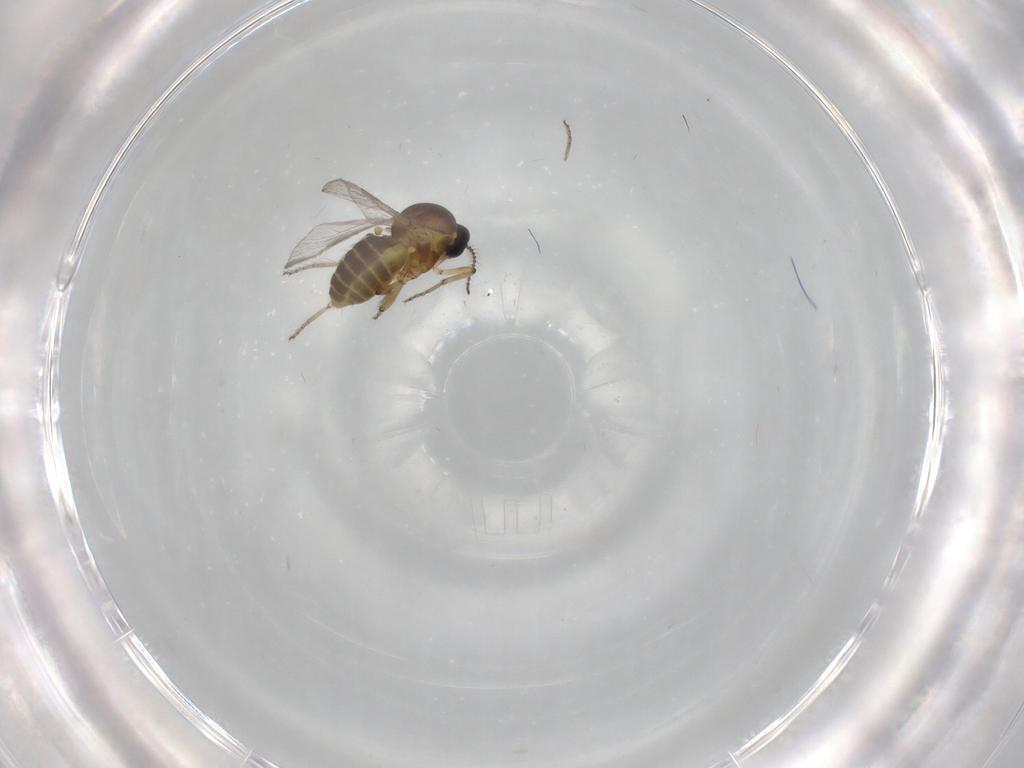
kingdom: Animalia
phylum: Arthropoda
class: Insecta
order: Diptera
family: Ceratopogonidae
